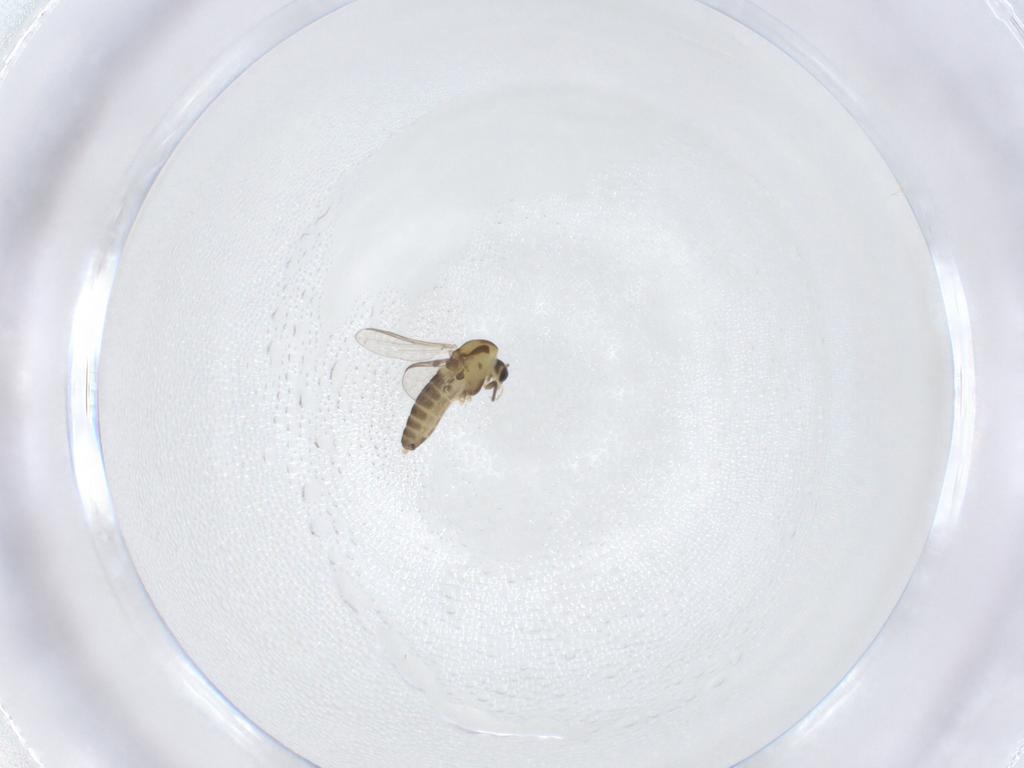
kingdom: Animalia
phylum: Arthropoda
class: Insecta
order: Diptera
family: Chironomidae
